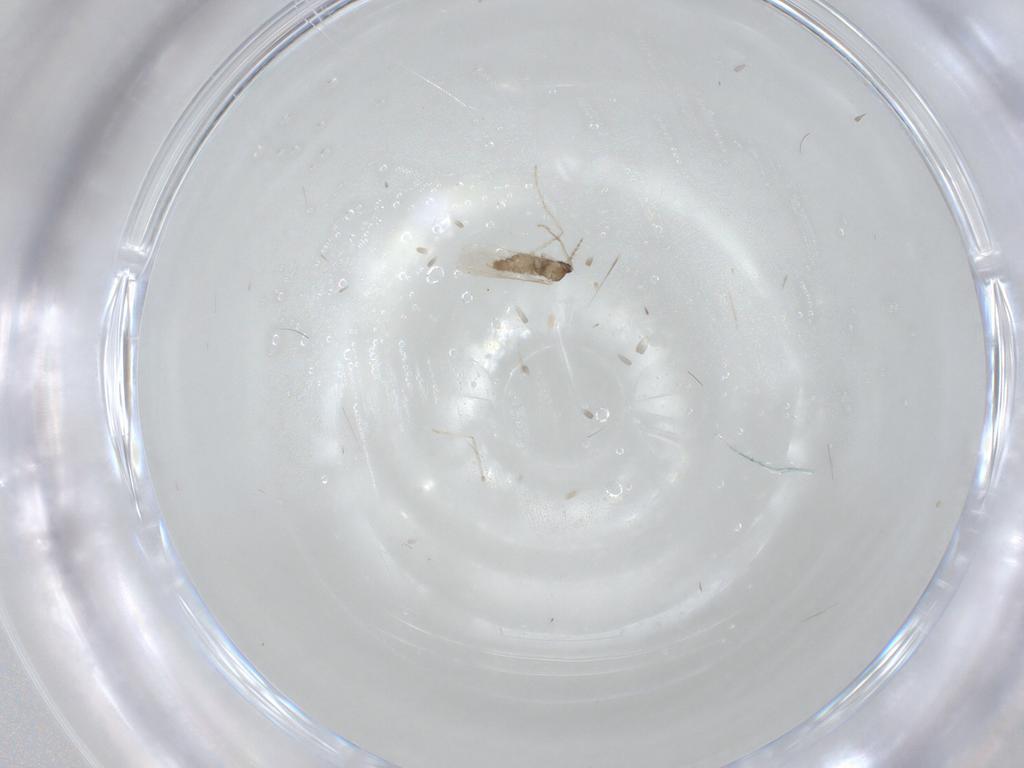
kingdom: Animalia
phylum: Arthropoda
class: Insecta
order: Diptera
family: Cecidomyiidae
